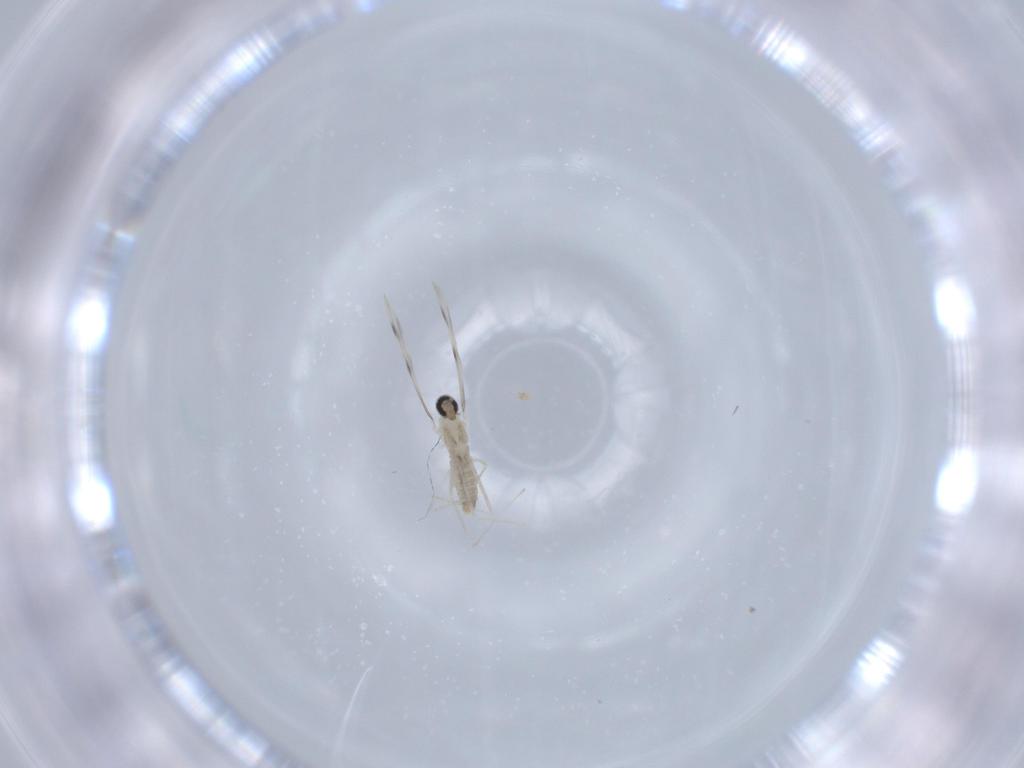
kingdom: Animalia
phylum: Arthropoda
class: Insecta
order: Diptera
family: Cecidomyiidae
